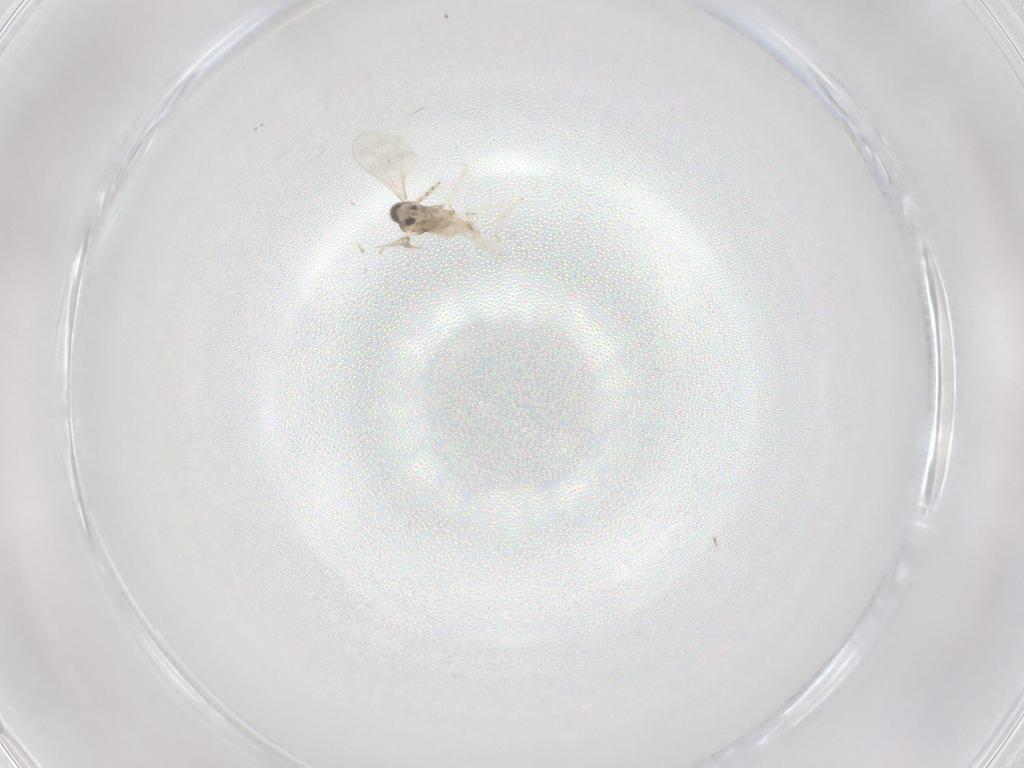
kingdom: Animalia
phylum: Arthropoda
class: Insecta
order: Diptera
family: Cecidomyiidae
